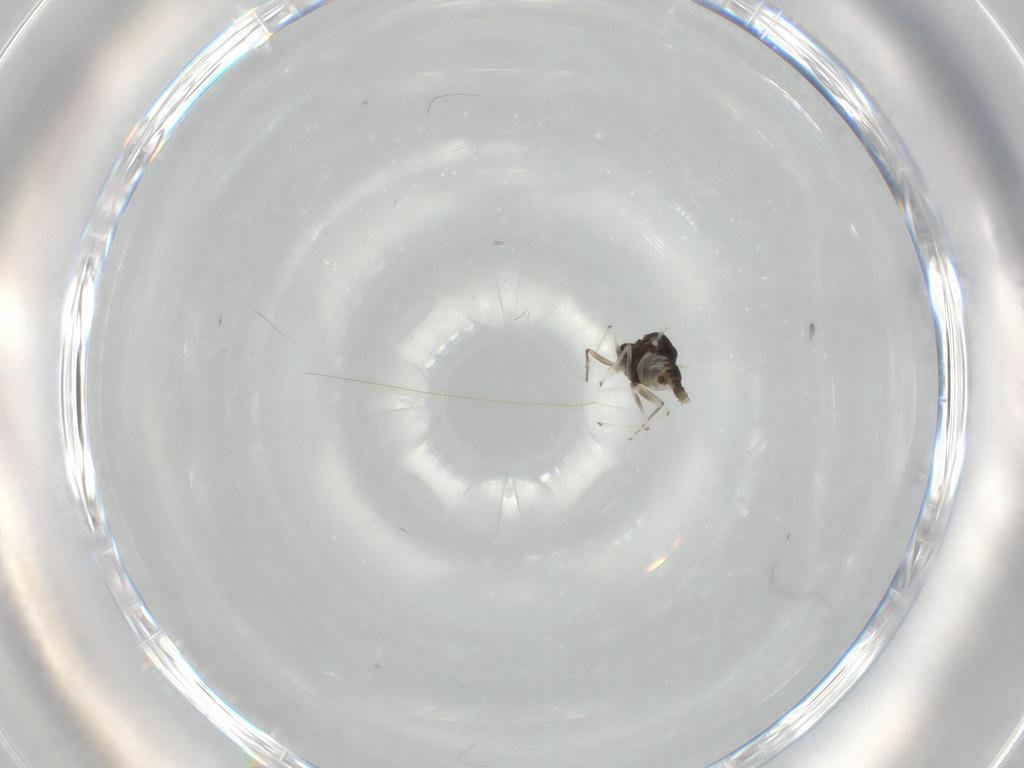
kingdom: Animalia
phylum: Arthropoda
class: Insecta
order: Diptera
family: Chironomidae
